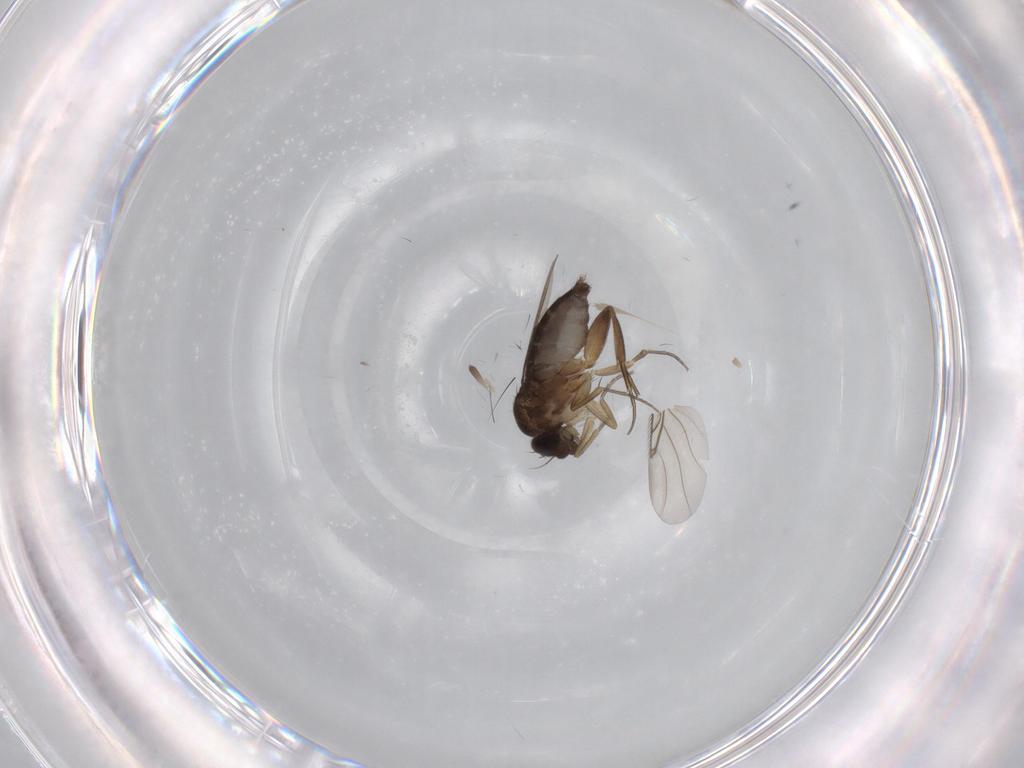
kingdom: Animalia
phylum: Arthropoda
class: Insecta
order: Diptera
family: Phoridae
